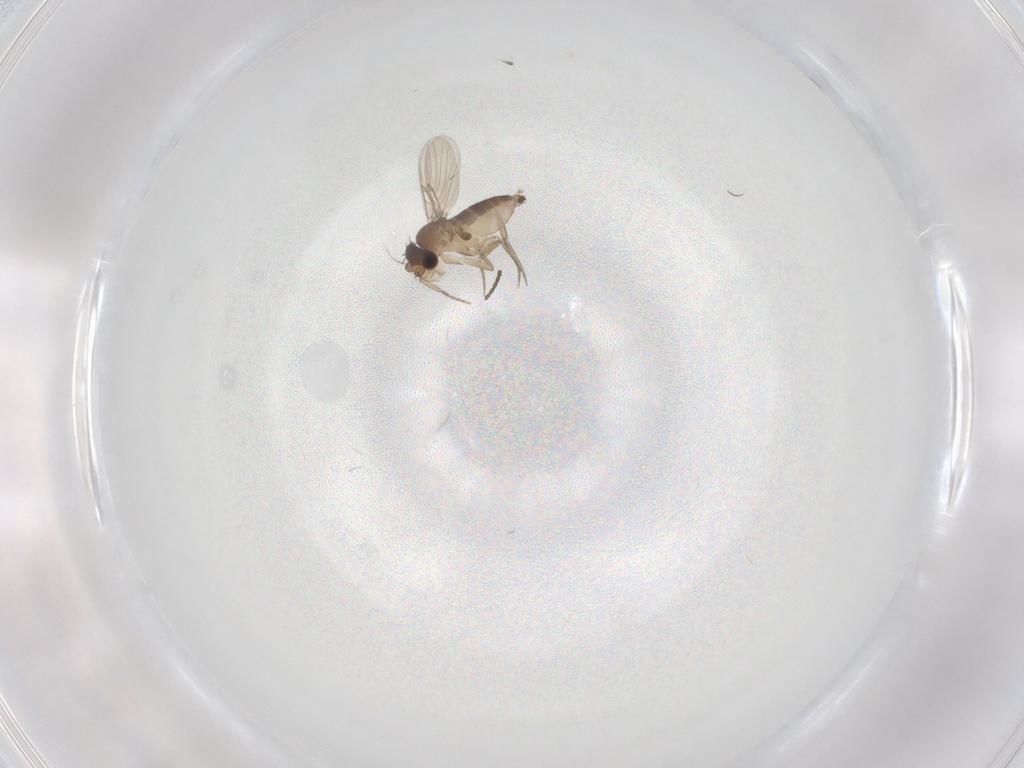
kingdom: Animalia
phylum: Arthropoda
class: Insecta
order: Diptera
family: Phoridae
